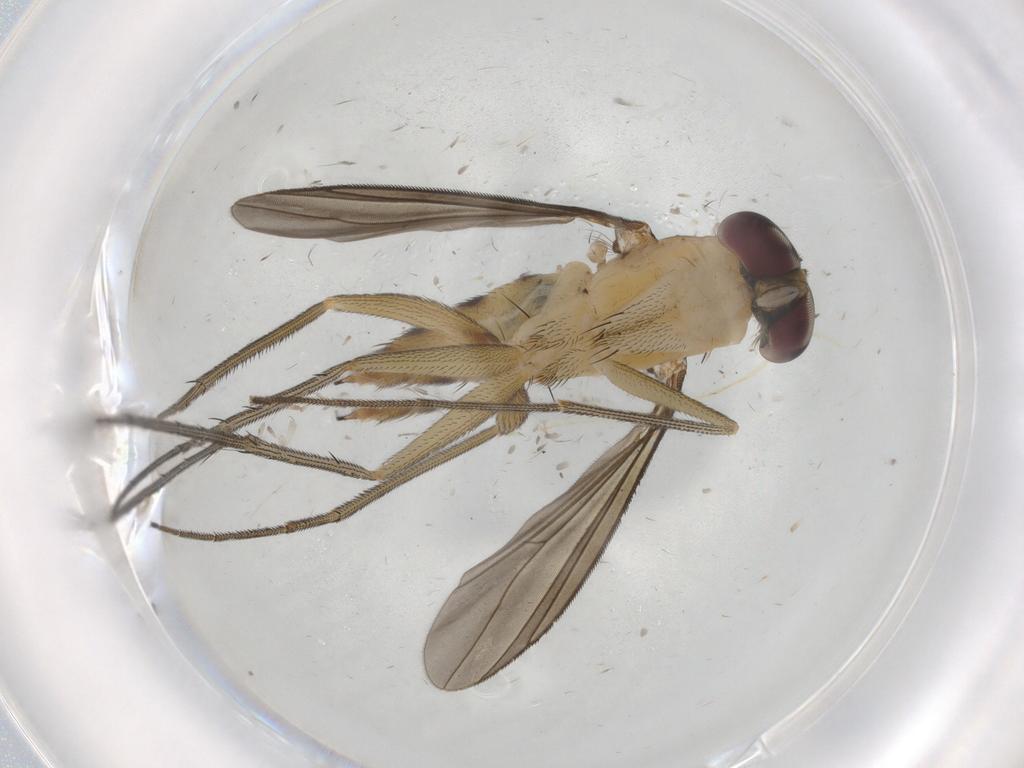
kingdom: Animalia
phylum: Arthropoda
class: Insecta
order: Diptera
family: Dolichopodidae
